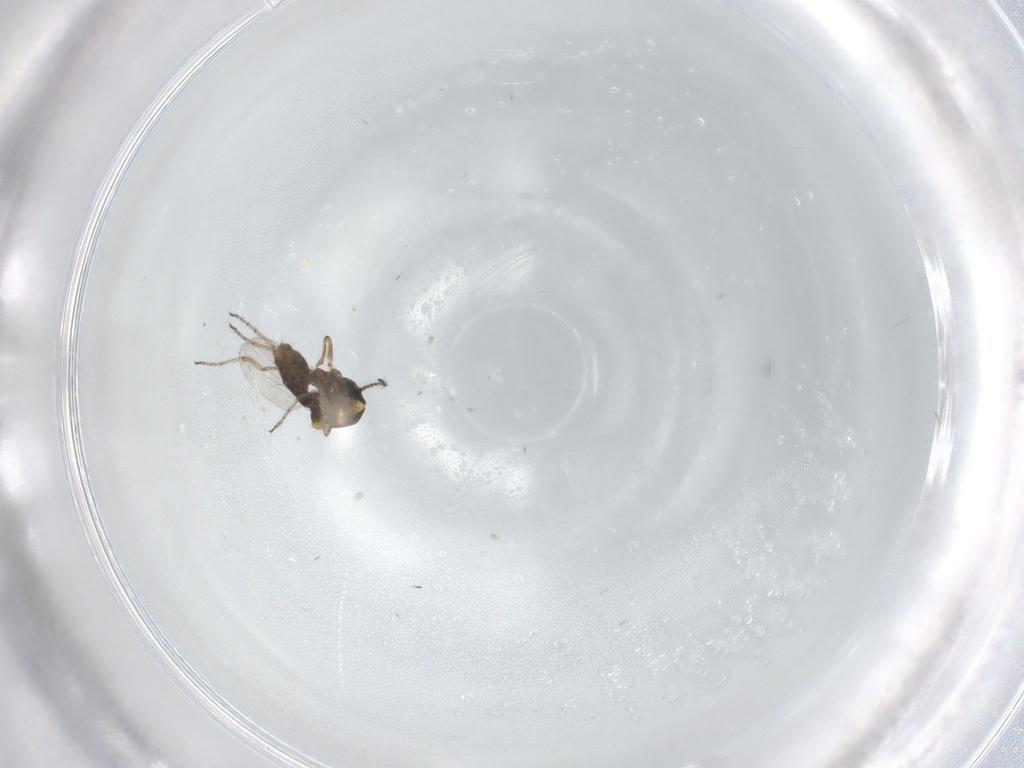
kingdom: Animalia
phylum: Arthropoda
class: Insecta
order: Diptera
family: Ceratopogonidae
